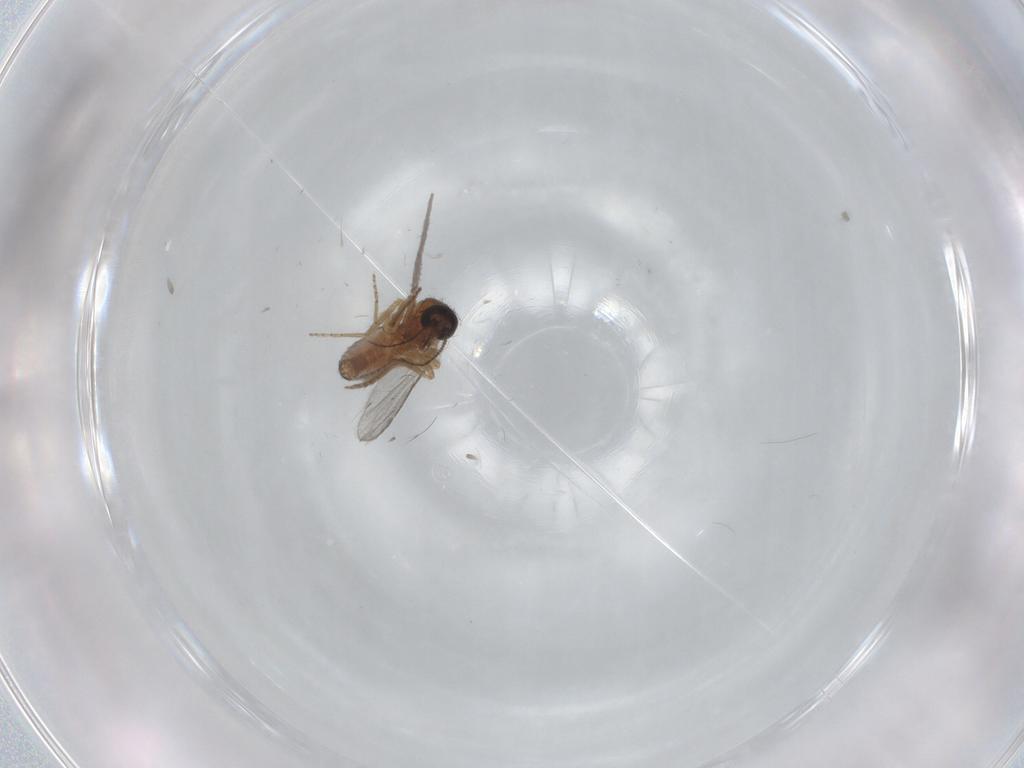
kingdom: Animalia
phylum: Arthropoda
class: Insecta
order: Diptera
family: Ceratopogonidae
